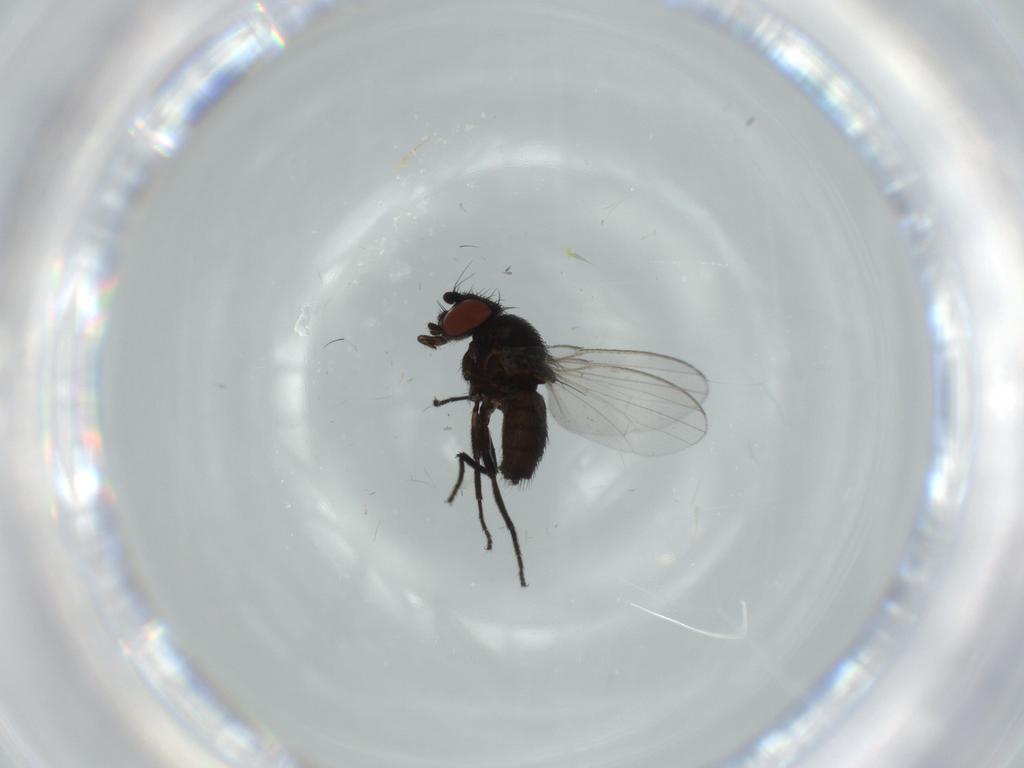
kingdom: Animalia
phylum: Arthropoda
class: Insecta
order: Diptera
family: Milichiidae
